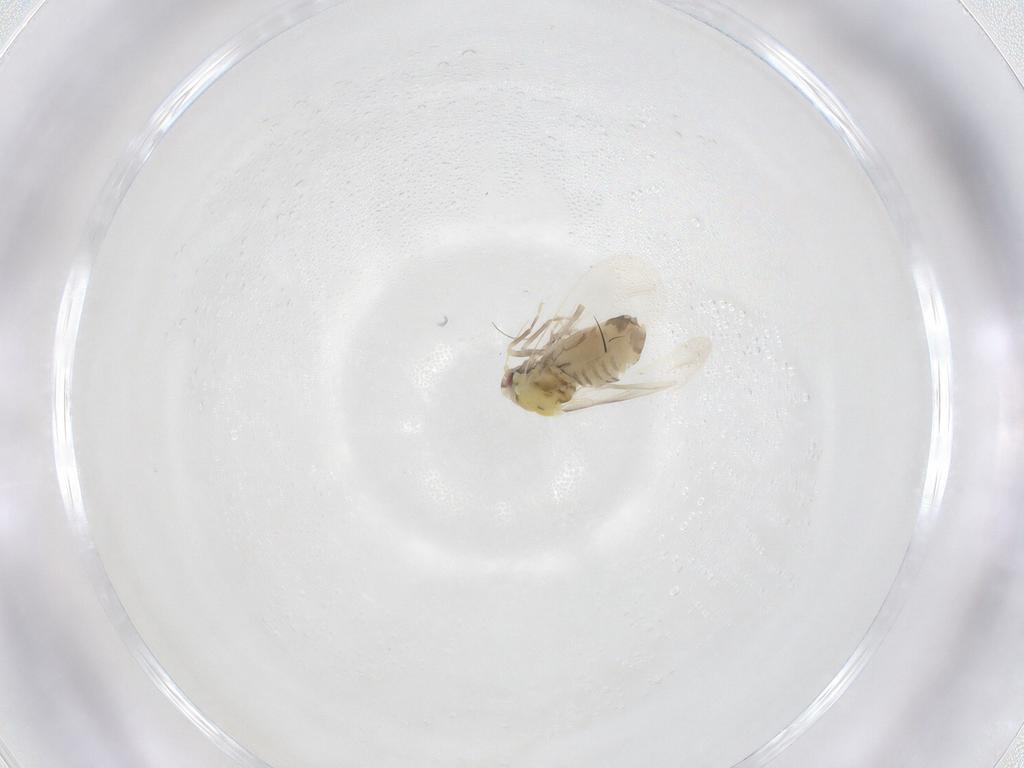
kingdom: Animalia
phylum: Arthropoda
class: Insecta
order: Hemiptera
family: Aleyrodidae
